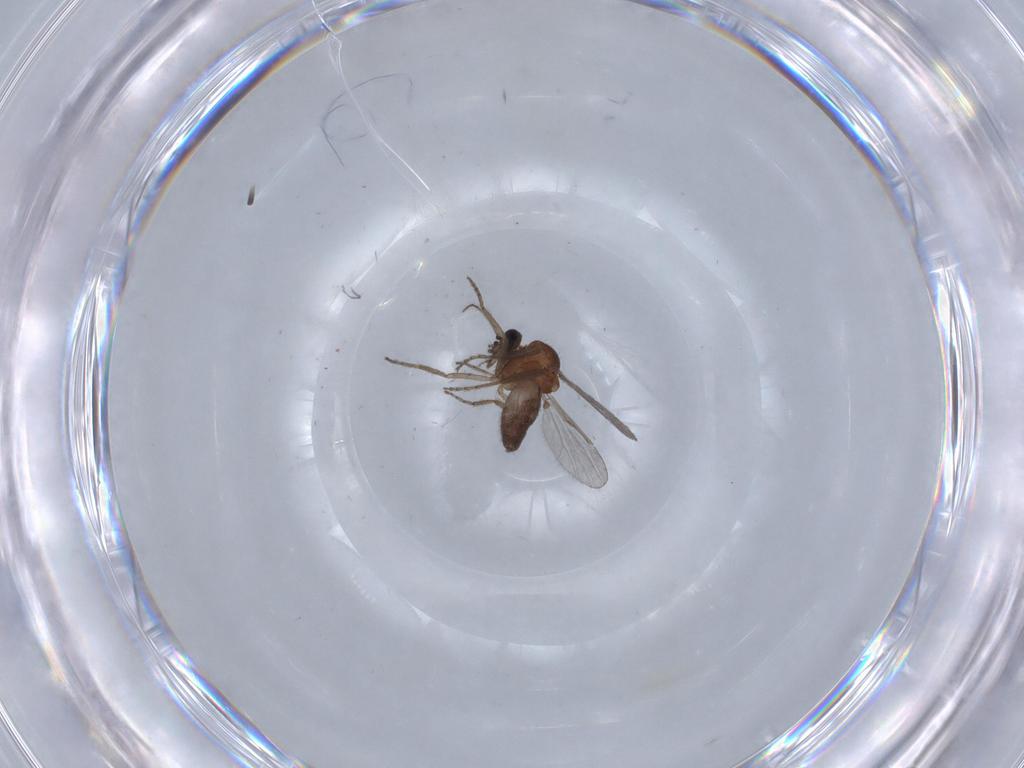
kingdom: Animalia
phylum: Arthropoda
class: Insecta
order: Diptera
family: Ceratopogonidae
